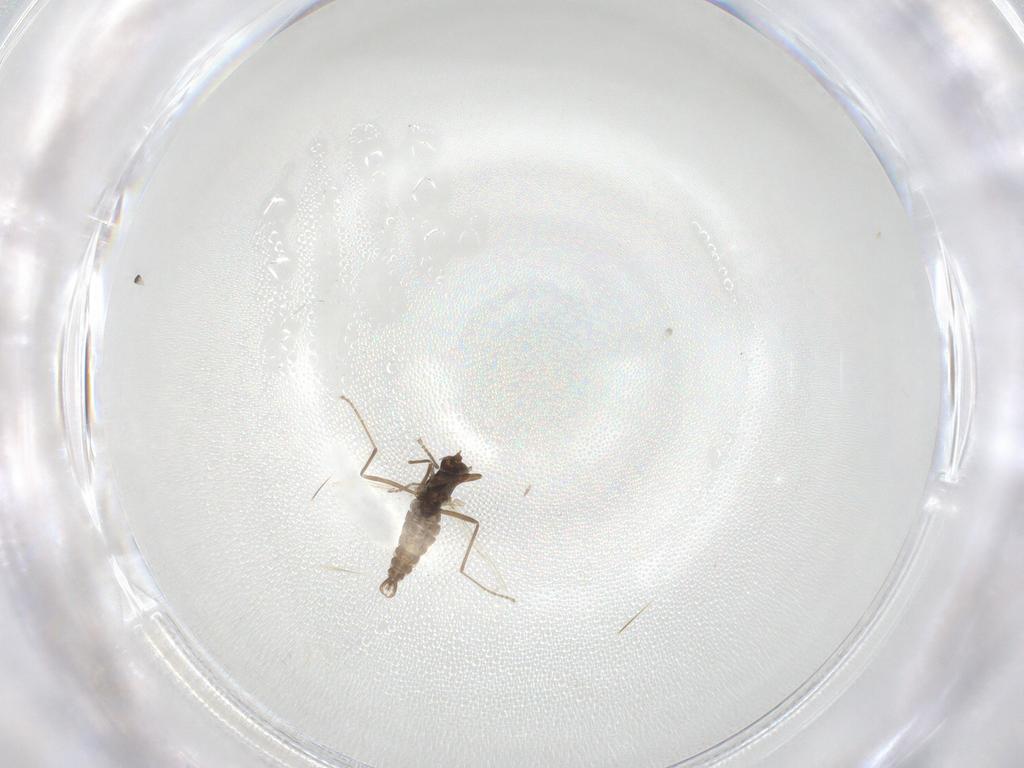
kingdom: Animalia
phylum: Arthropoda
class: Insecta
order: Diptera
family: Cecidomyiidae
